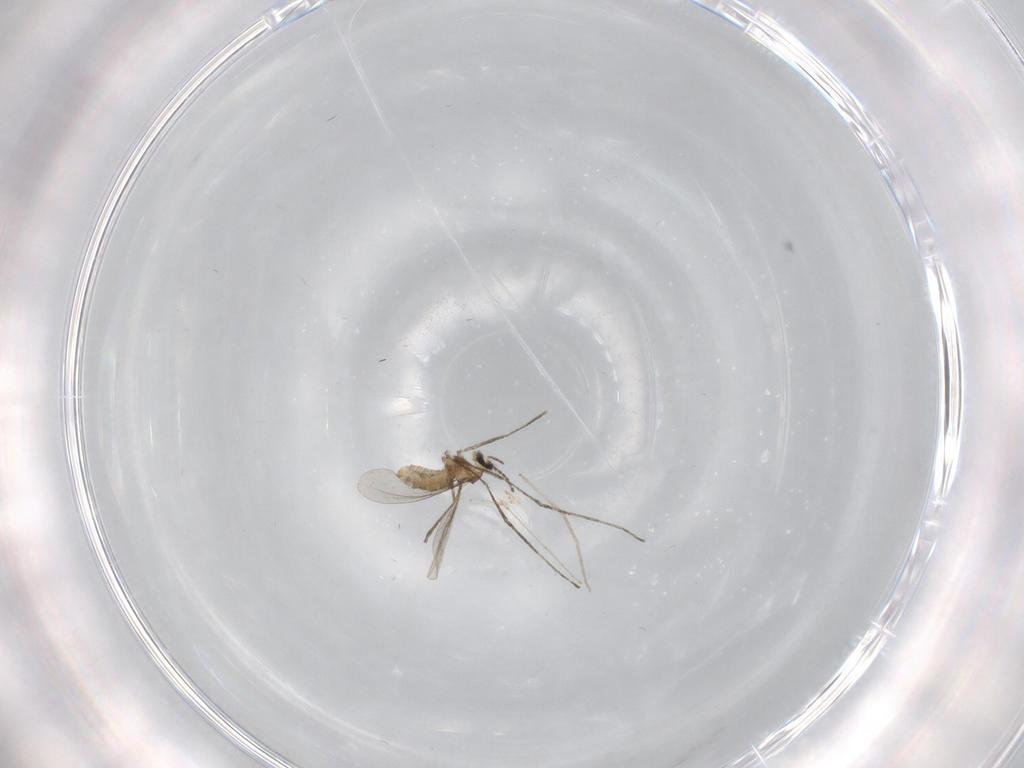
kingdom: Animalia
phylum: Arthropoda
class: Insecta
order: Diptera
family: Cecidomyiidae
